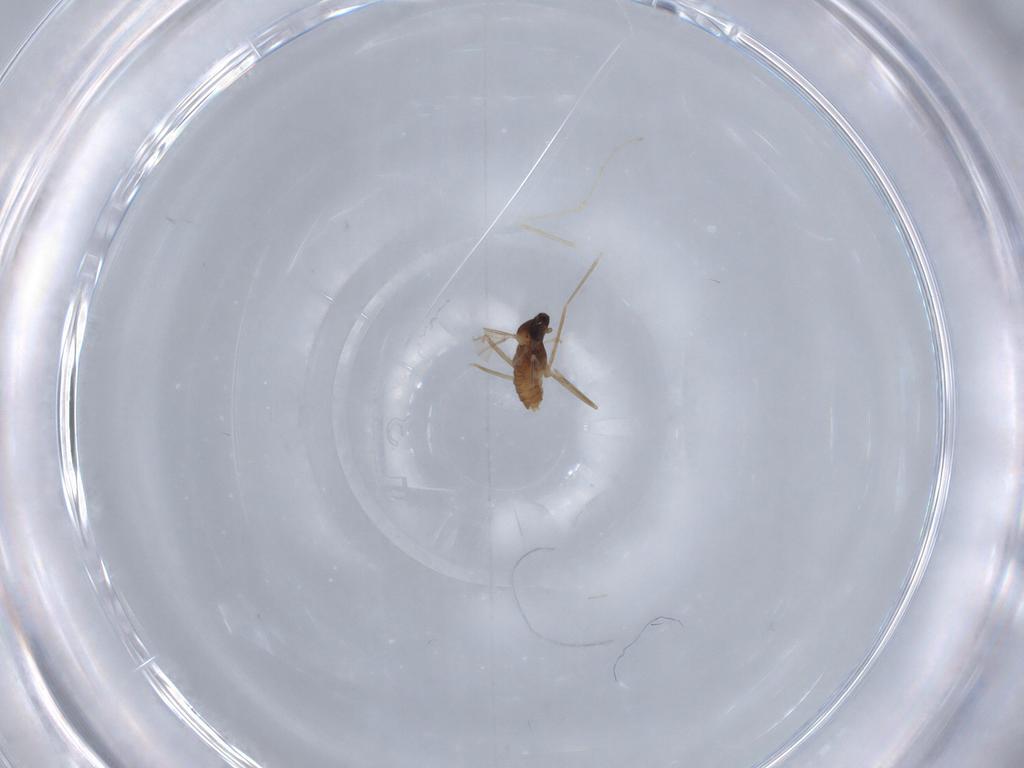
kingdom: Animalia
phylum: Arthropoda
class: Insecta
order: Diptera
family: Cecidomyiidae
